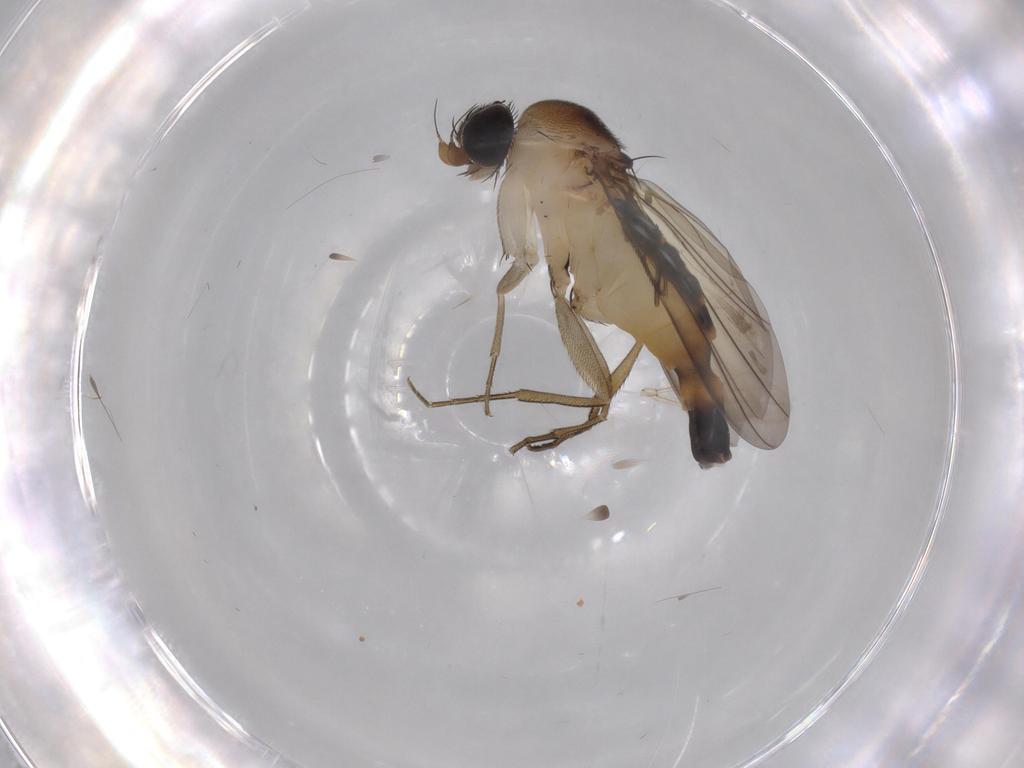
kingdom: Animalia
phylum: Arthropoda
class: Insecta
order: Diptera
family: Phoridae
